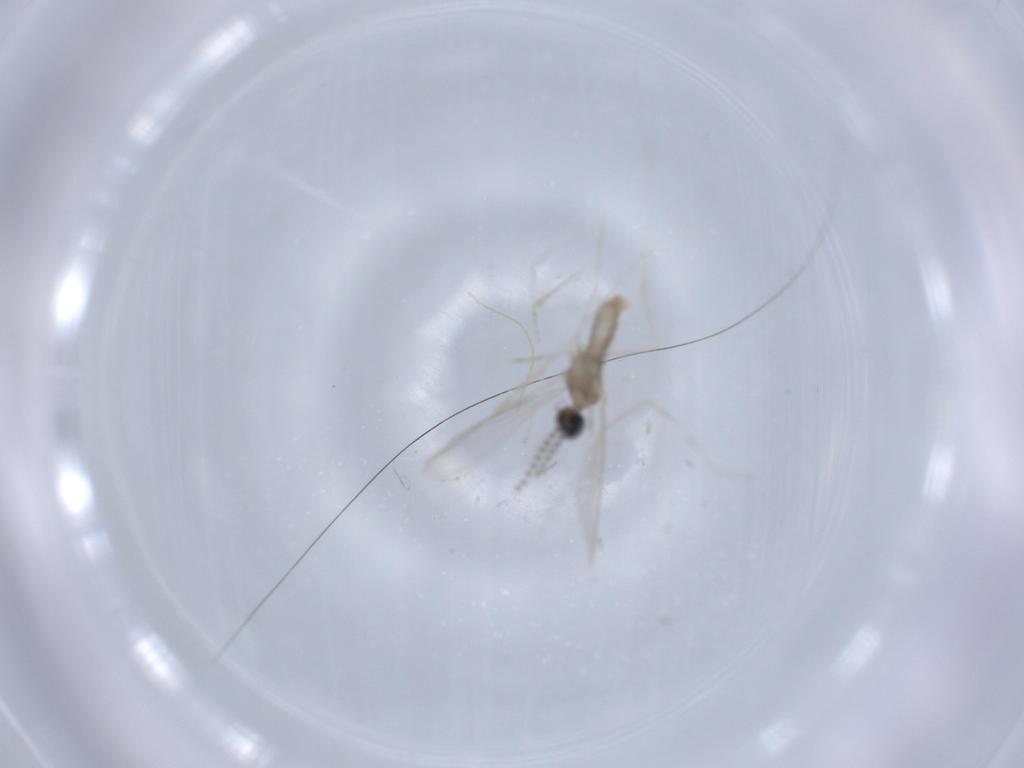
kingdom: Animalia
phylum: Arthropoda
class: Insecta
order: Diptera
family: Cecidomyiidae
